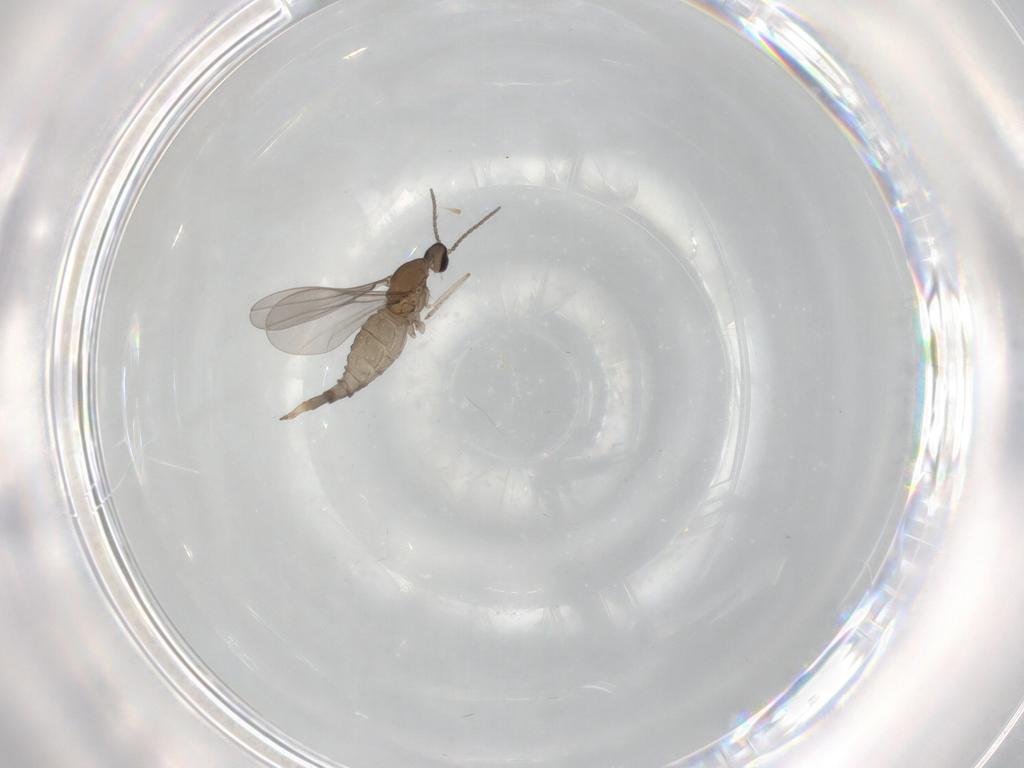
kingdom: Animalia
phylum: Arthropoda
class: Insecta
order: Diptera
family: Cecidomyiidae
